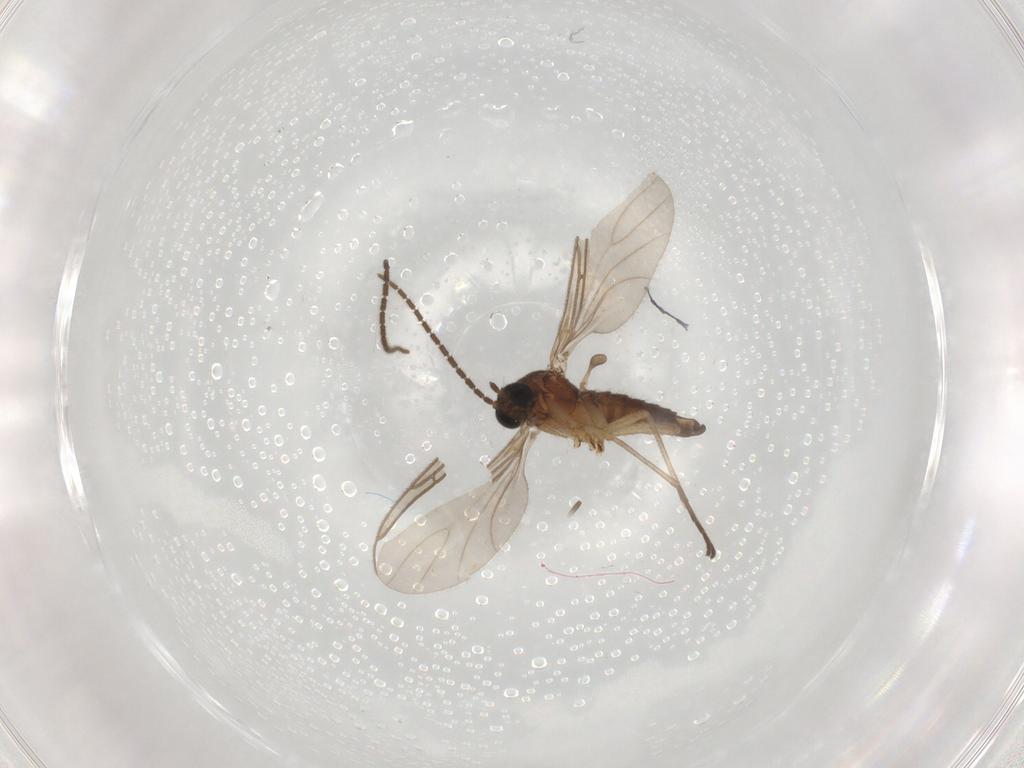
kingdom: Animalia
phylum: Arthropoda
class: Insecta
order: Diptera
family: Sciaridae
